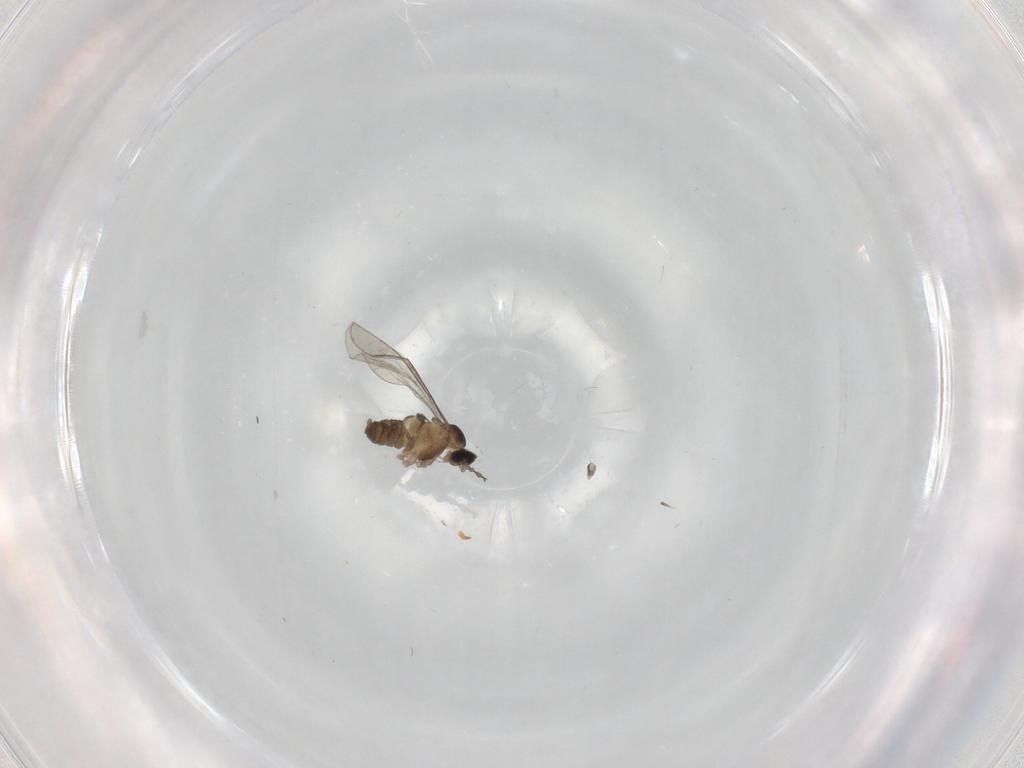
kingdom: Animalia
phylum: Arthropoda
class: Insecta
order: Diptera
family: Cecidomyiidae
